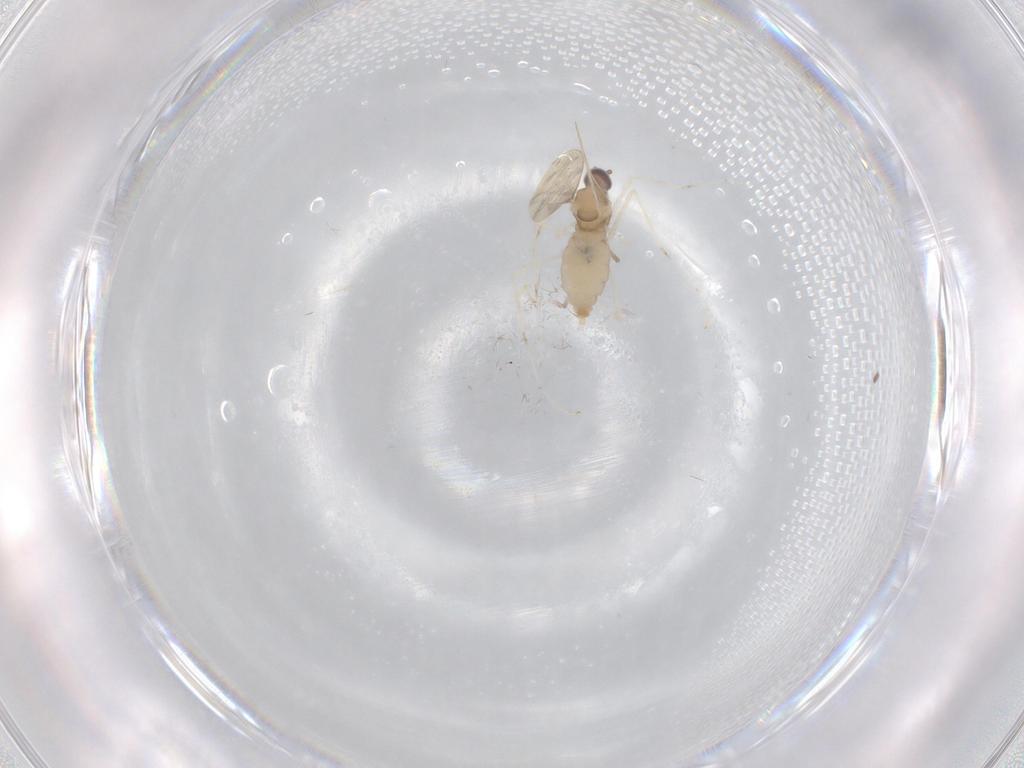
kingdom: Animalia
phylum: Arthropoda
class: Insecta
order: Diptera
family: Cecidomyiidae
